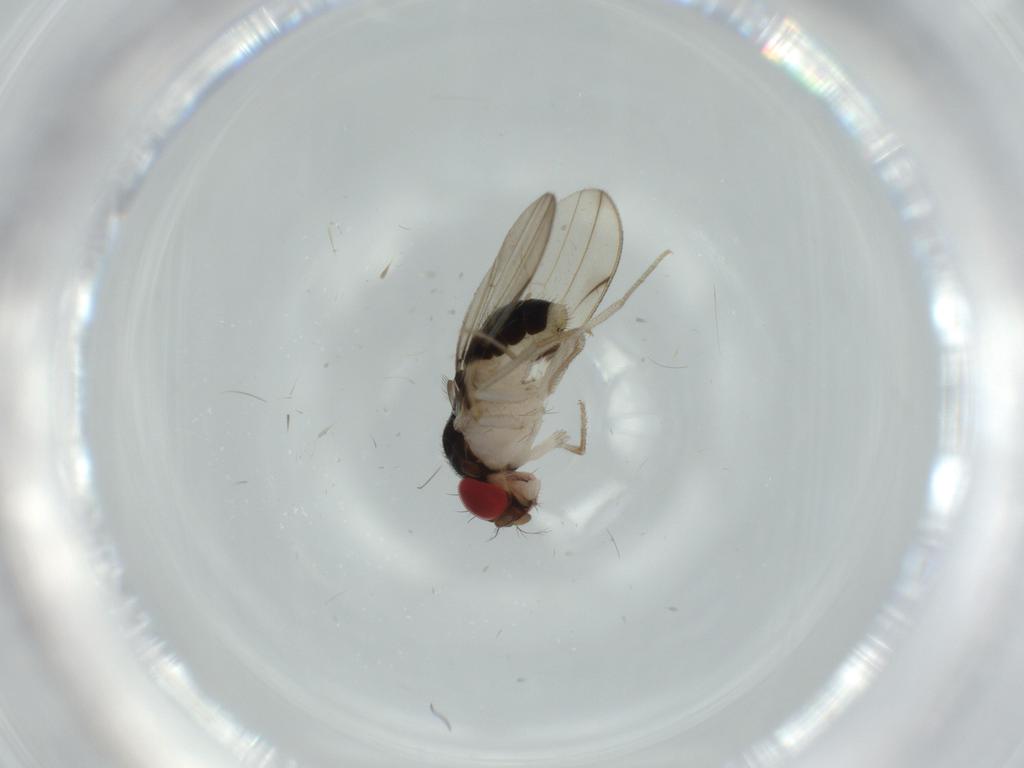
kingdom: Animalia
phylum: Arthropoda
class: Insecta
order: Diptera
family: Drosophilidae
